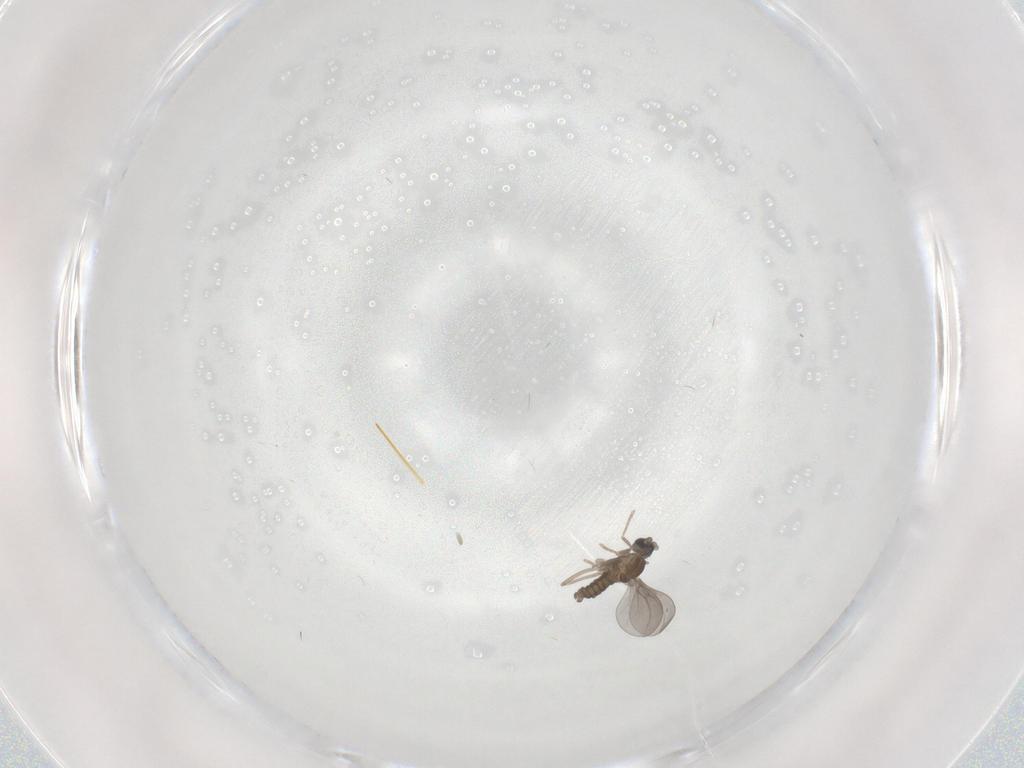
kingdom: Animalia
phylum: Arthropoda
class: Insecta
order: Diptera
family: Cecidomyiidae
